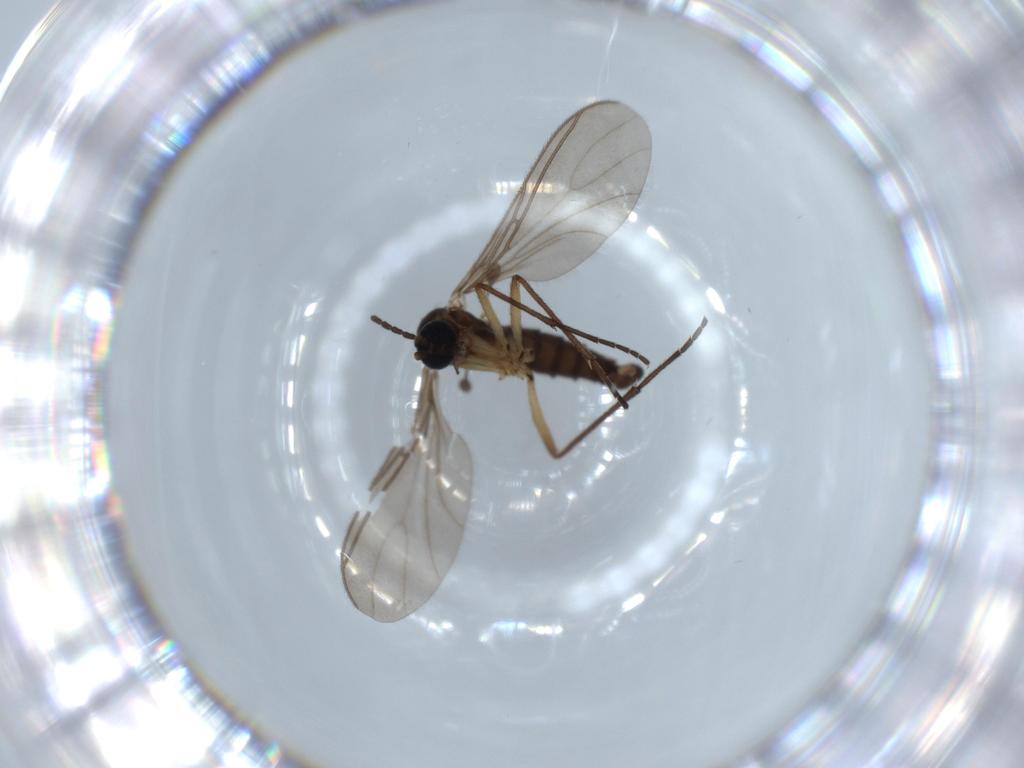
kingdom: Animalia
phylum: Arthropoda
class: Insecta
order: Diptera
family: Sciaridae
